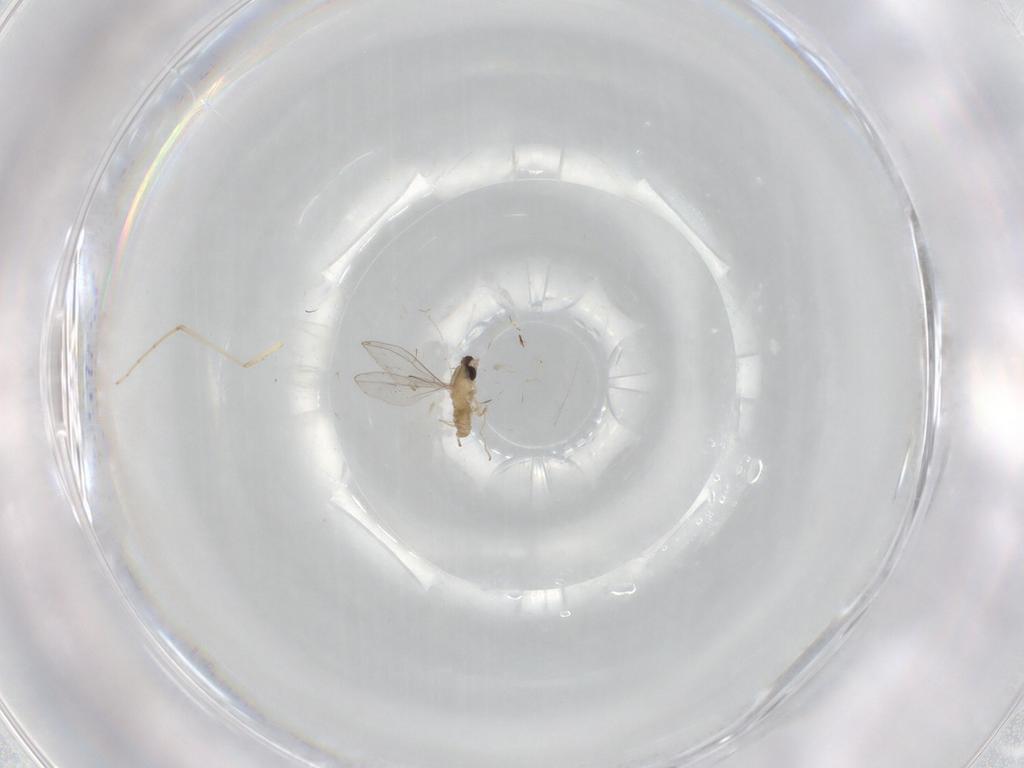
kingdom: Animalia
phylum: Arthropoda
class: Insecta
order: Diptera
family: Cecidomyiidae
